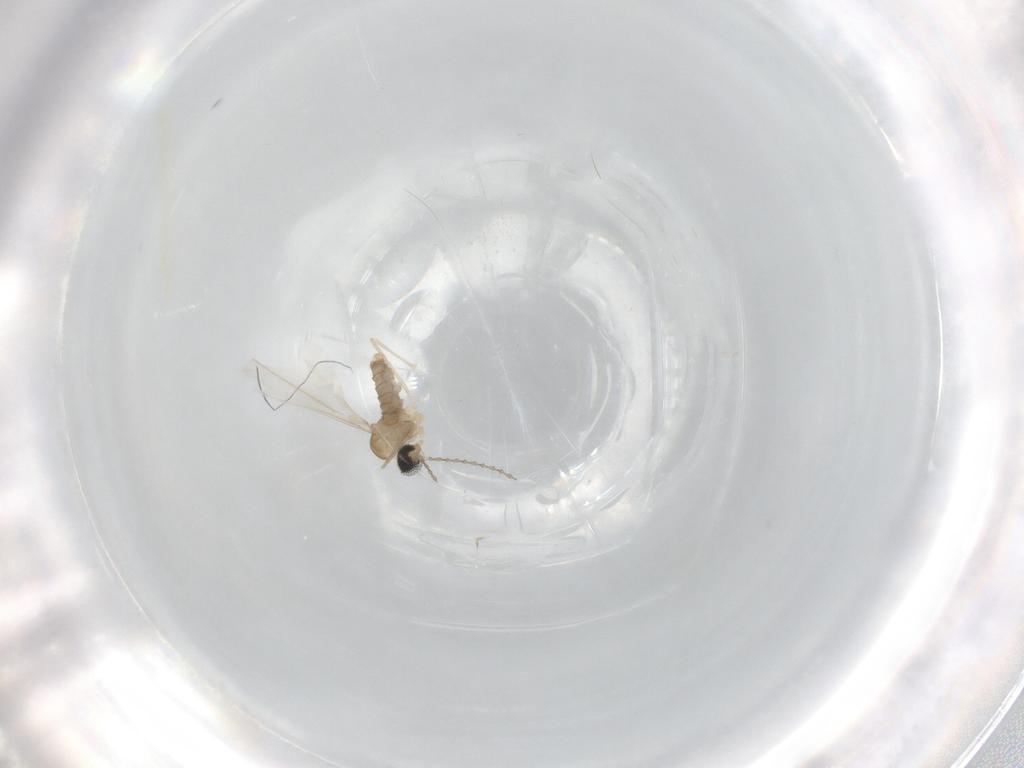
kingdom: Animalia
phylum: Arthropoda
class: Insecta
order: Diptera
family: Cecidomyiidae
